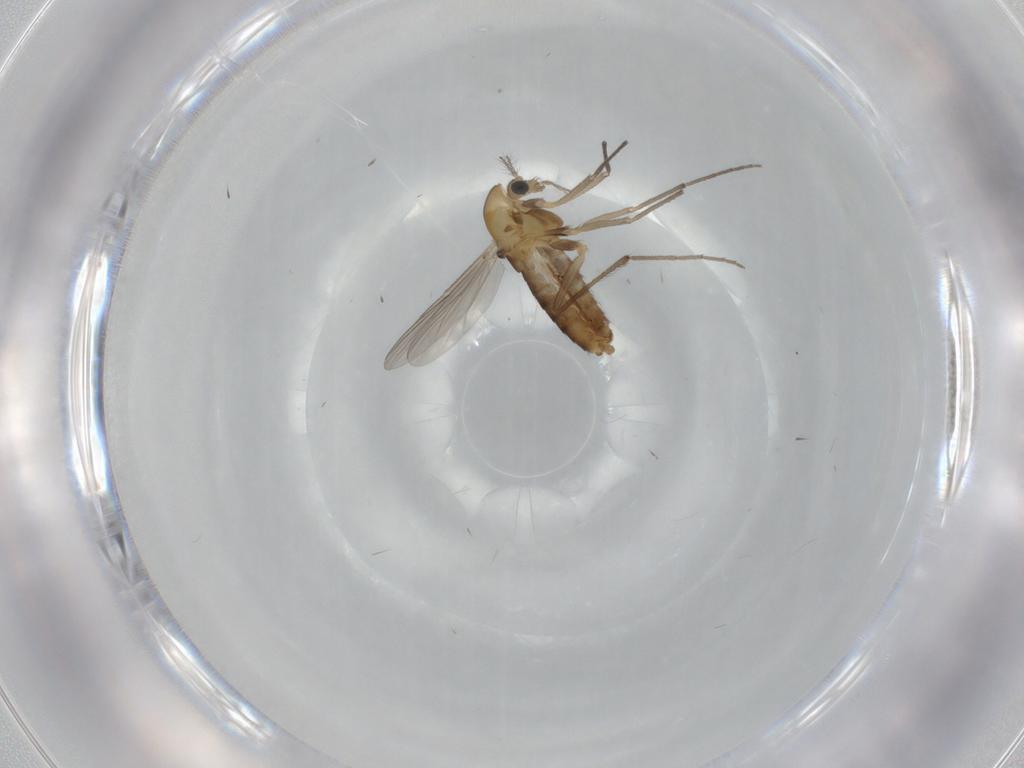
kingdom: Animalia
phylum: Arthropoda
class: Insecta
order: Diptera
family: Chironomidae
